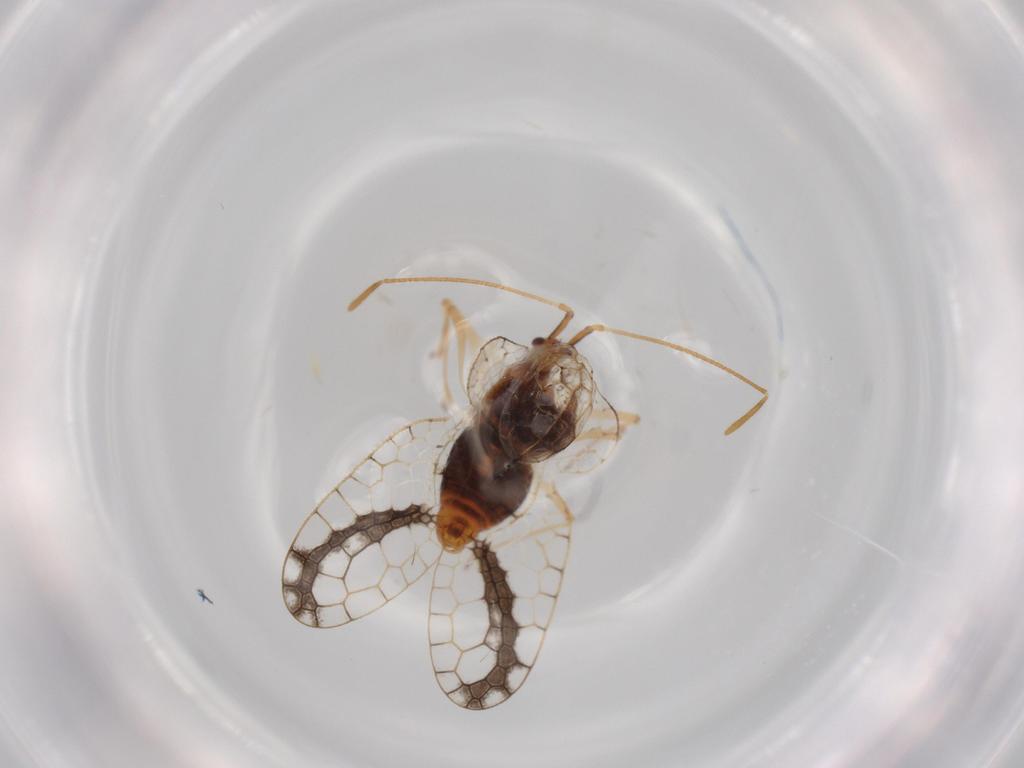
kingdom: Animalia
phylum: Arthropoda
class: Insecta
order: Hemiptera
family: Tingidae
